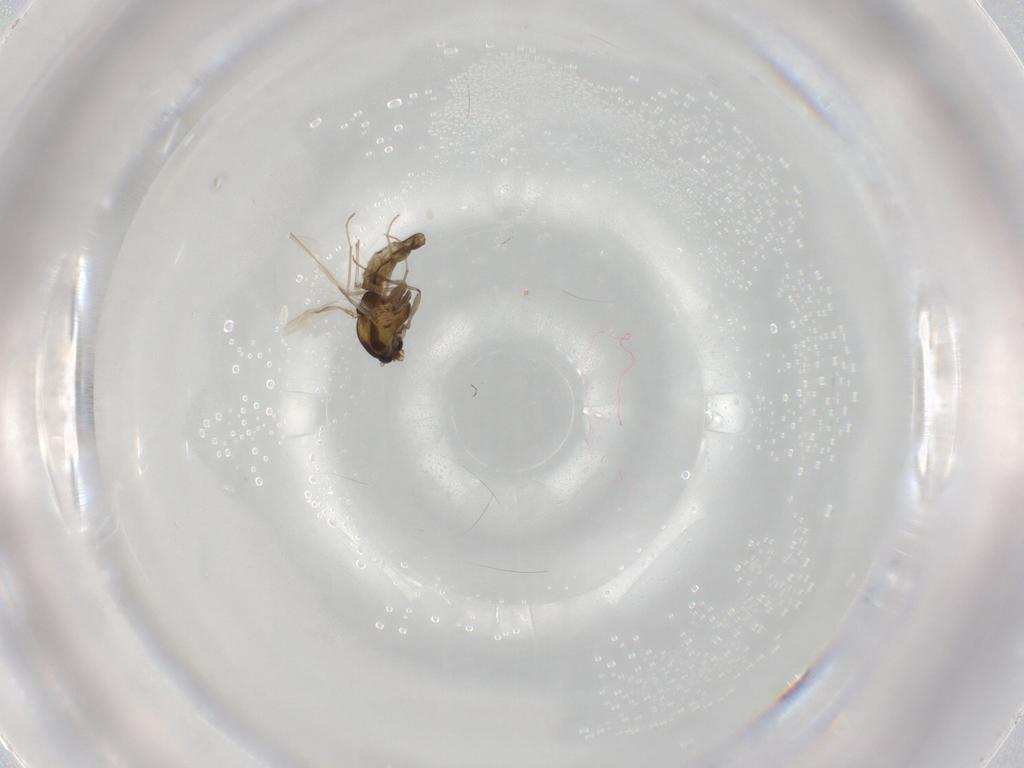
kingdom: Animalia
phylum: Arthropoda
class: Insecta
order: Diptera
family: Chironomidae
